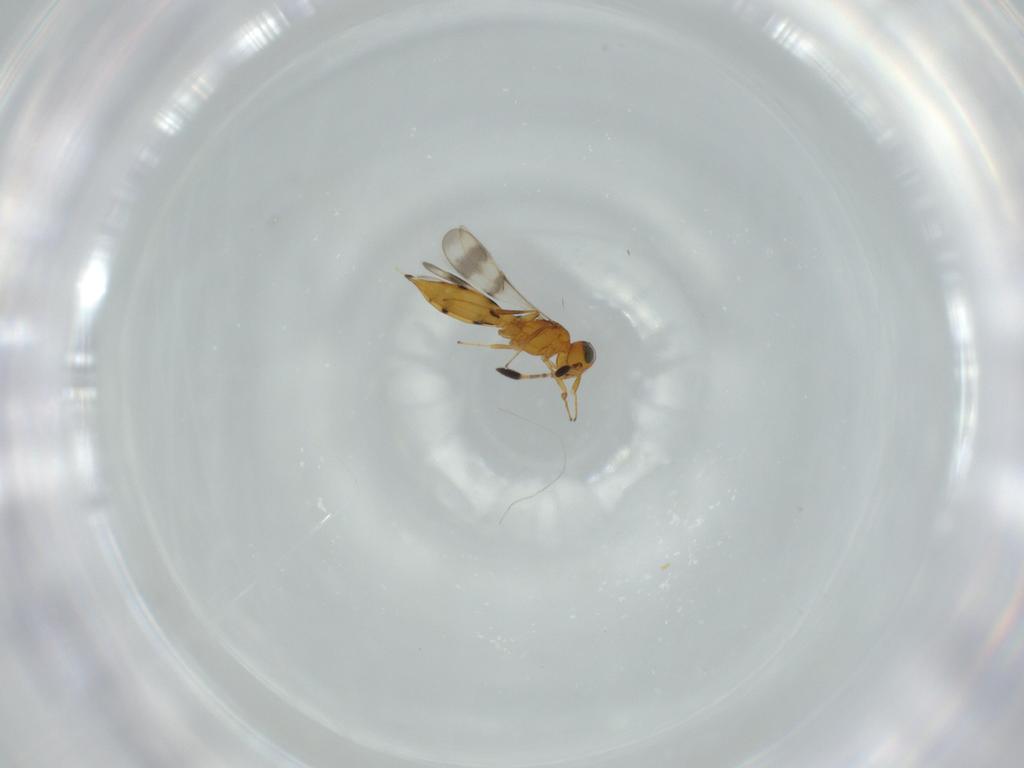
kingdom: Animalia
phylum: Arthropoda
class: Insecta
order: Hymenoptera
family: Scelionidae
